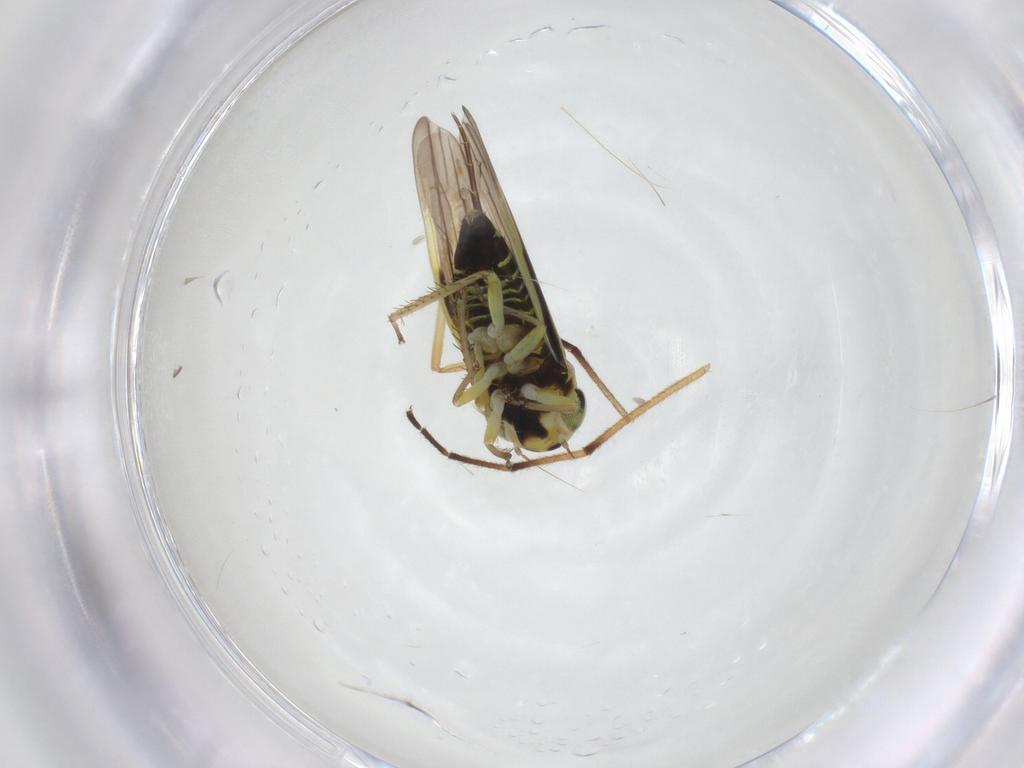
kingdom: Animalia
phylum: Arthropoda
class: Insecta
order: Hemiptera
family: Cicadellidae
